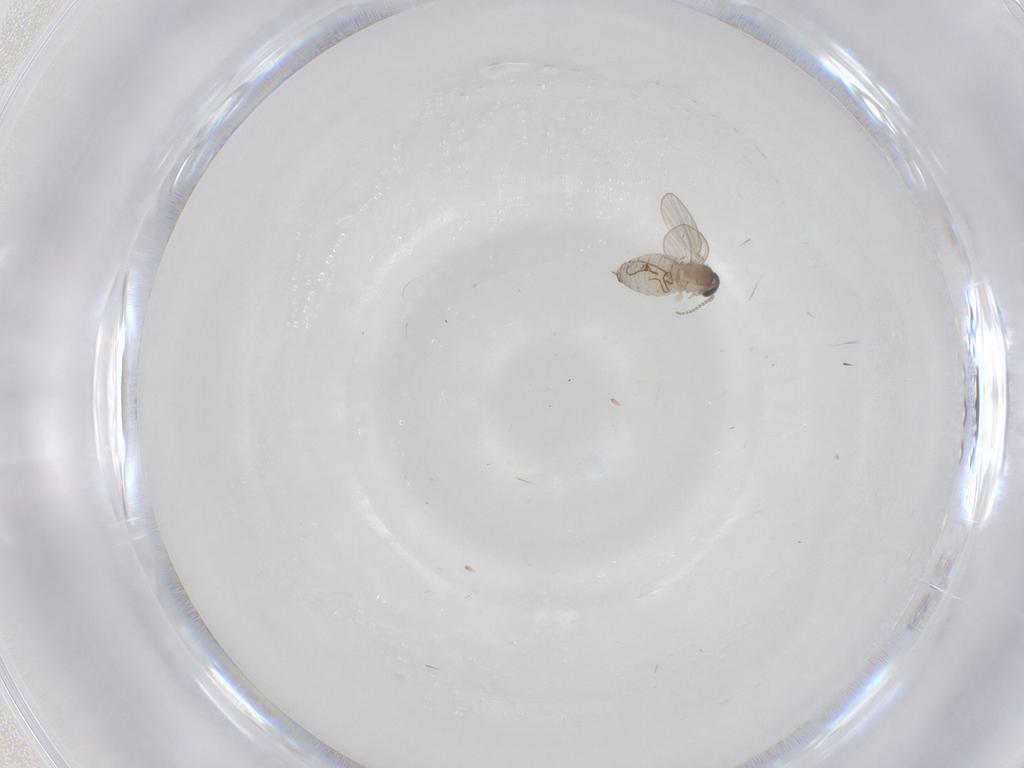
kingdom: Animalia
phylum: Arthropoda
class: Insecta
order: Diptera
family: Psychodidae
